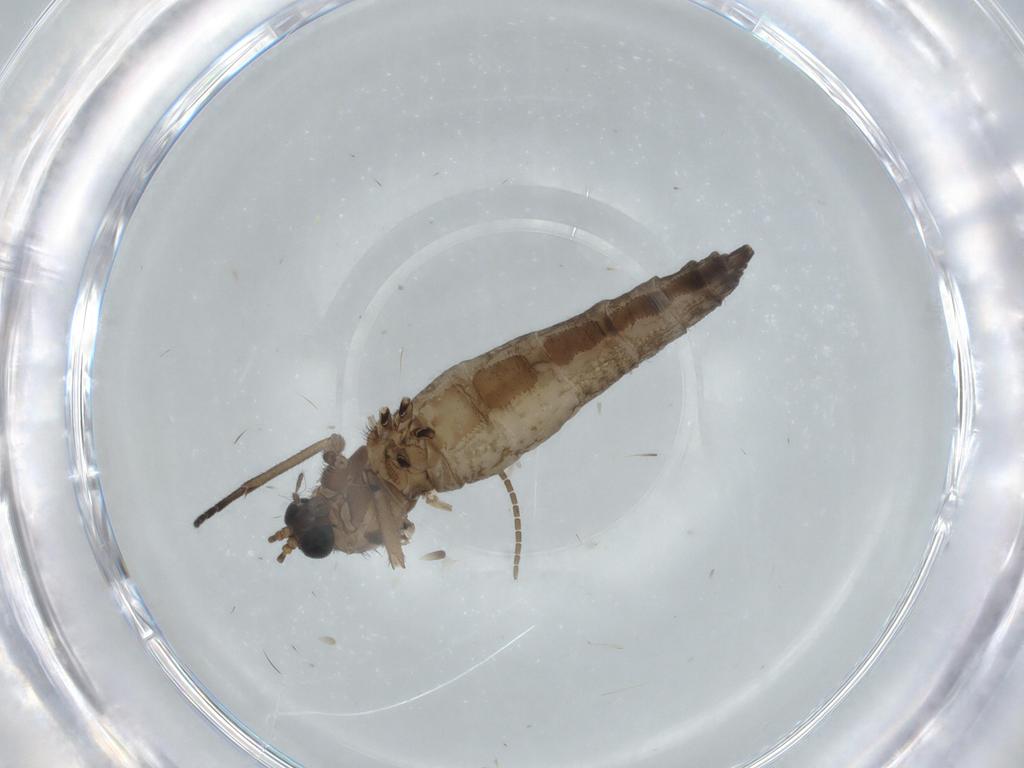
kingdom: Animalia
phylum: Arthropoda
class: Insecta
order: Diptera
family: Sciaridae
